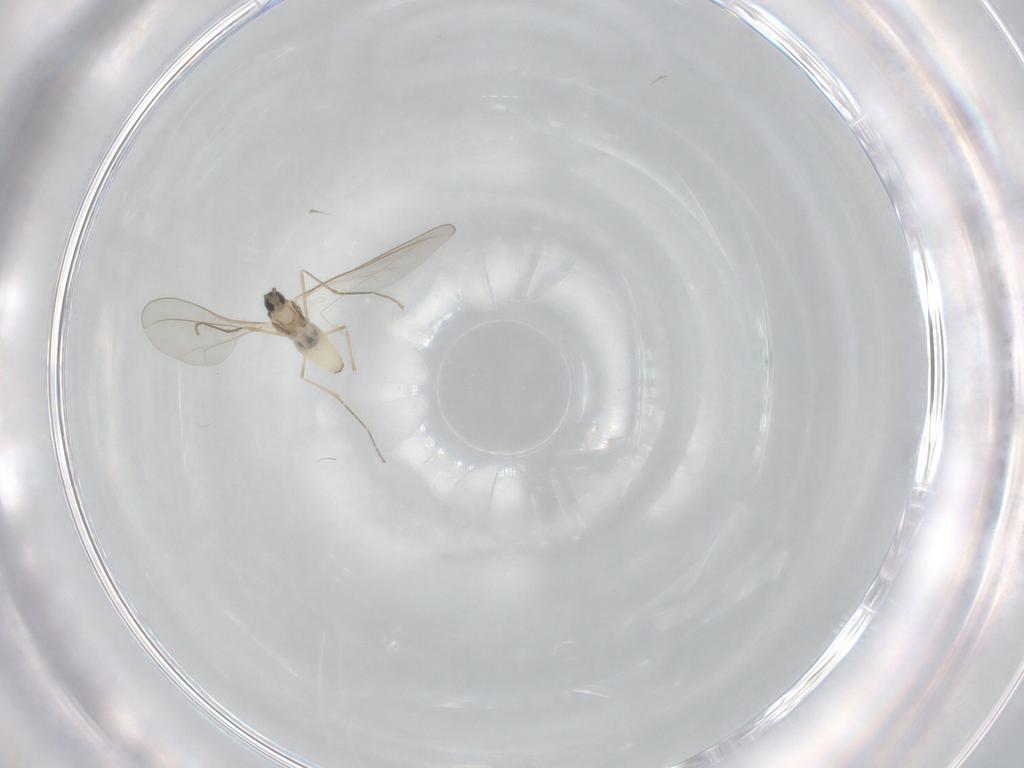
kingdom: Animalia
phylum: Arthropoda
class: Insecta
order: Diptera
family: Cecidomyiidae
